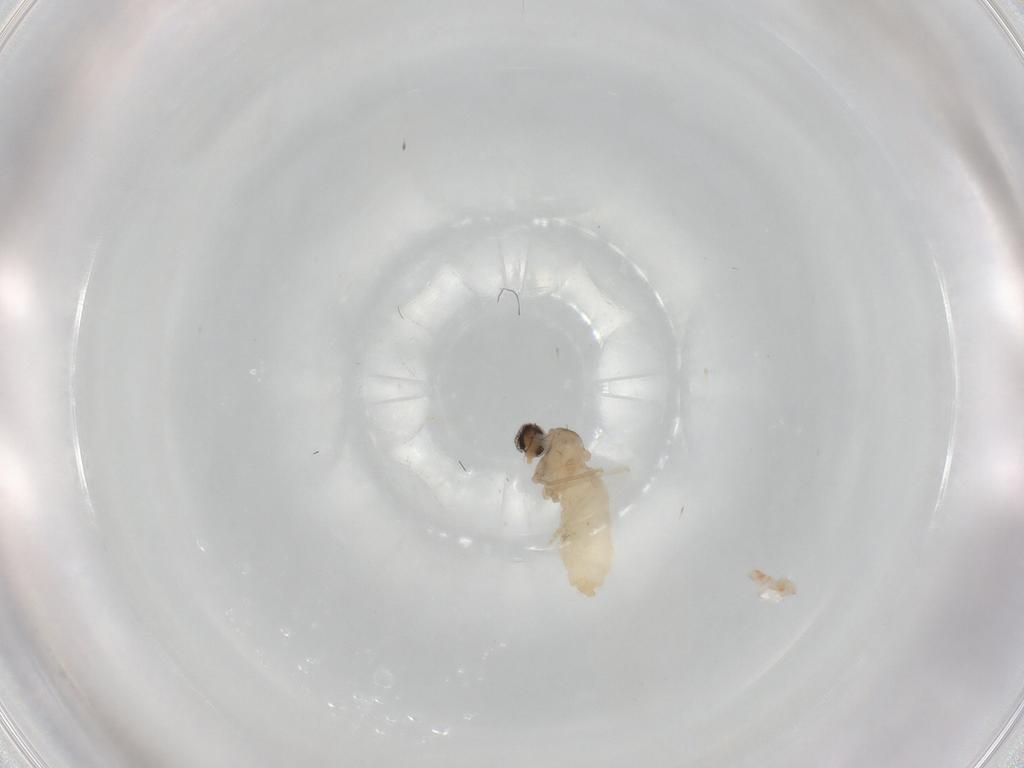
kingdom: Animalia
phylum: Arthropoda
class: Insecta
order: Diptera
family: Cecidomyiidae
